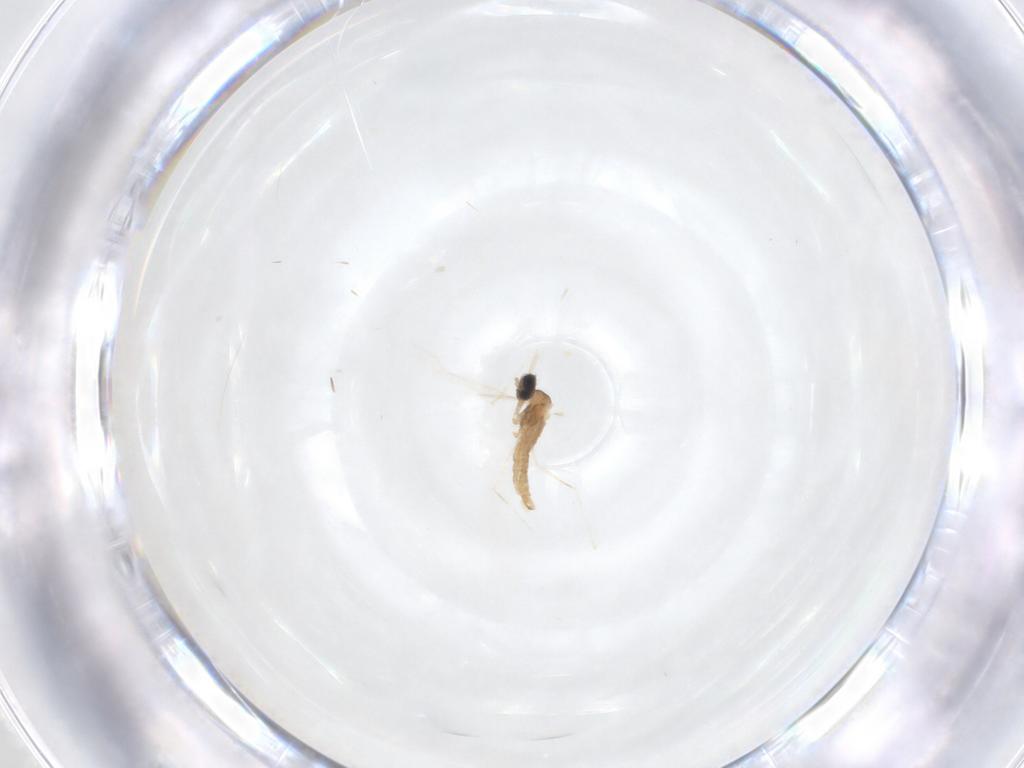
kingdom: Animalia
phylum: Arthropoda
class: Insecta
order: Diptera
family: Cecidomyiidae
